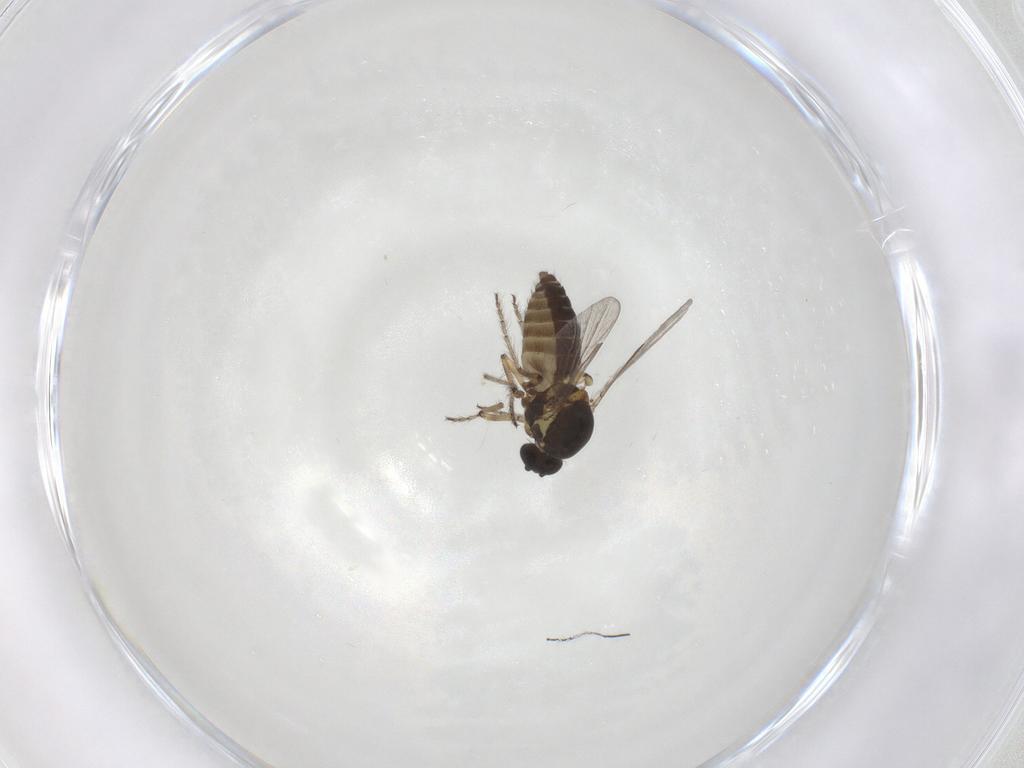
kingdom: Animalia
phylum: Arthropoda
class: Insecta
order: Diptera
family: Ceratopogonidae
